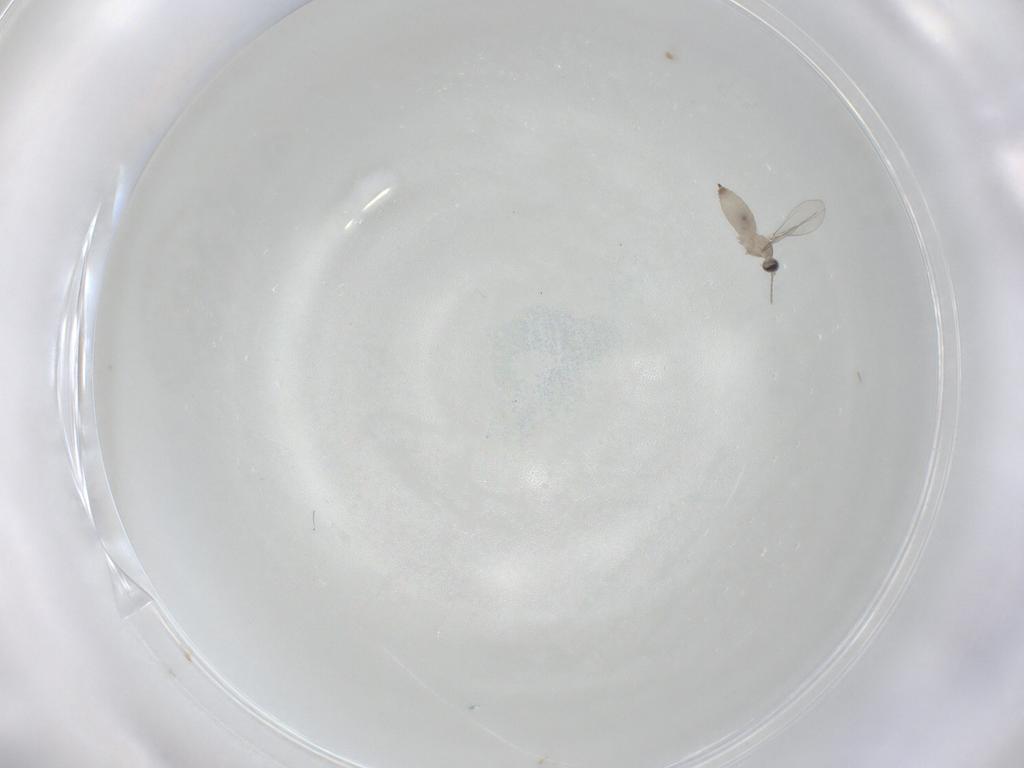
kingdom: Animalia
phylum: Arthropoda
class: Insecta
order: Diptera
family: Cecidomyiidae
